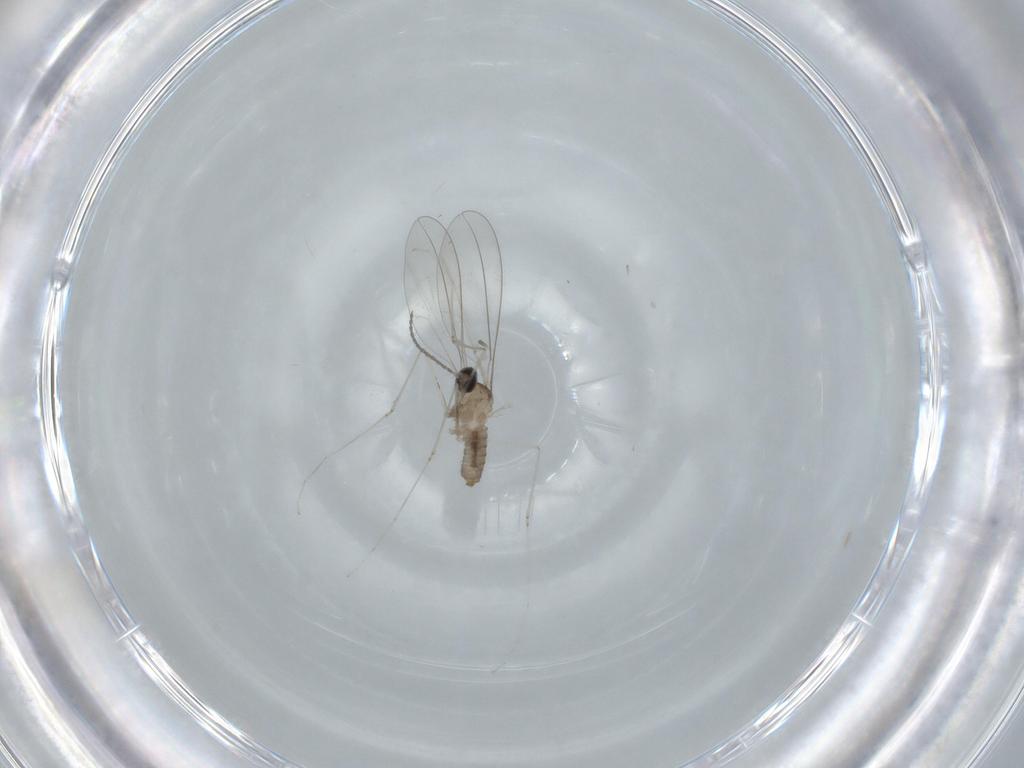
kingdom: Animalia
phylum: Arthropoda
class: Insecta
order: Diptera
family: Cecidomyiidae
